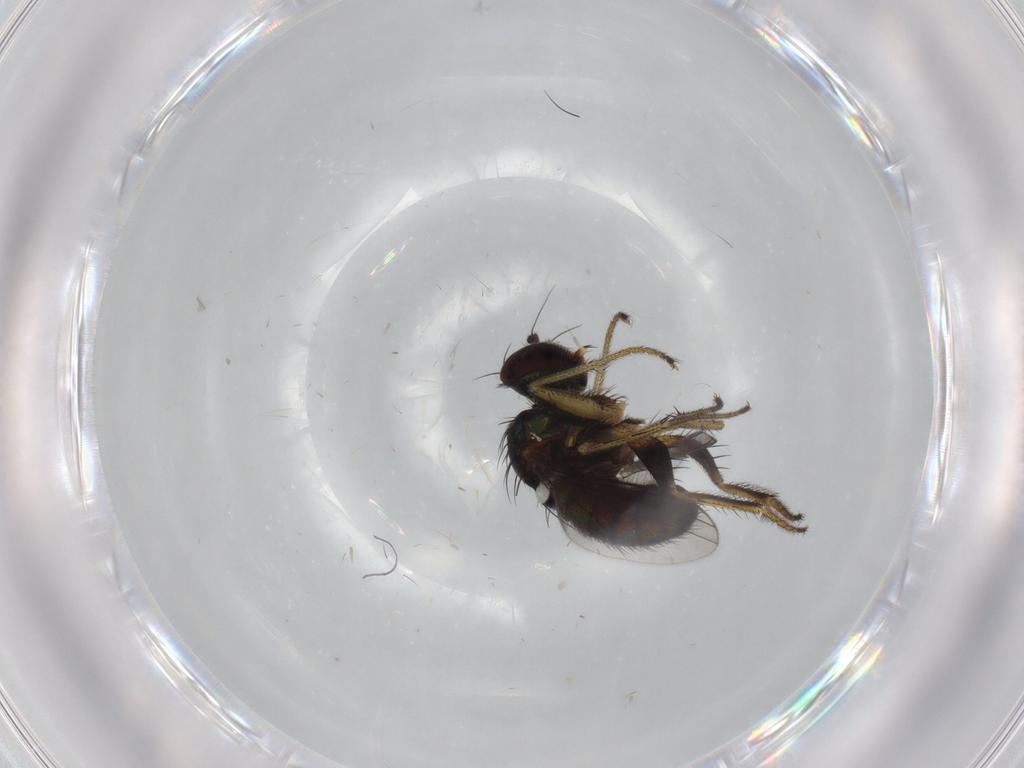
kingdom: Animalia
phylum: Arthropoda
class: Insecta
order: Diptera
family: Dolichopodidae
